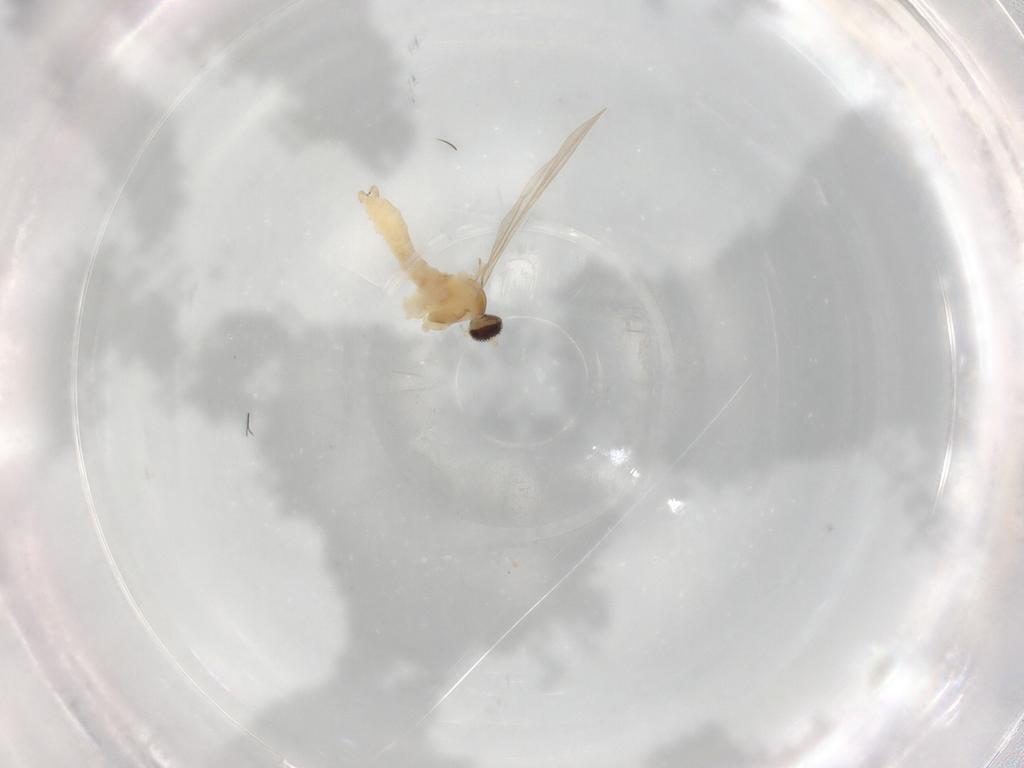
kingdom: Animalia
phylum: Arthropoda
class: Insecta
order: Diptera
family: Cecidomyiidae
